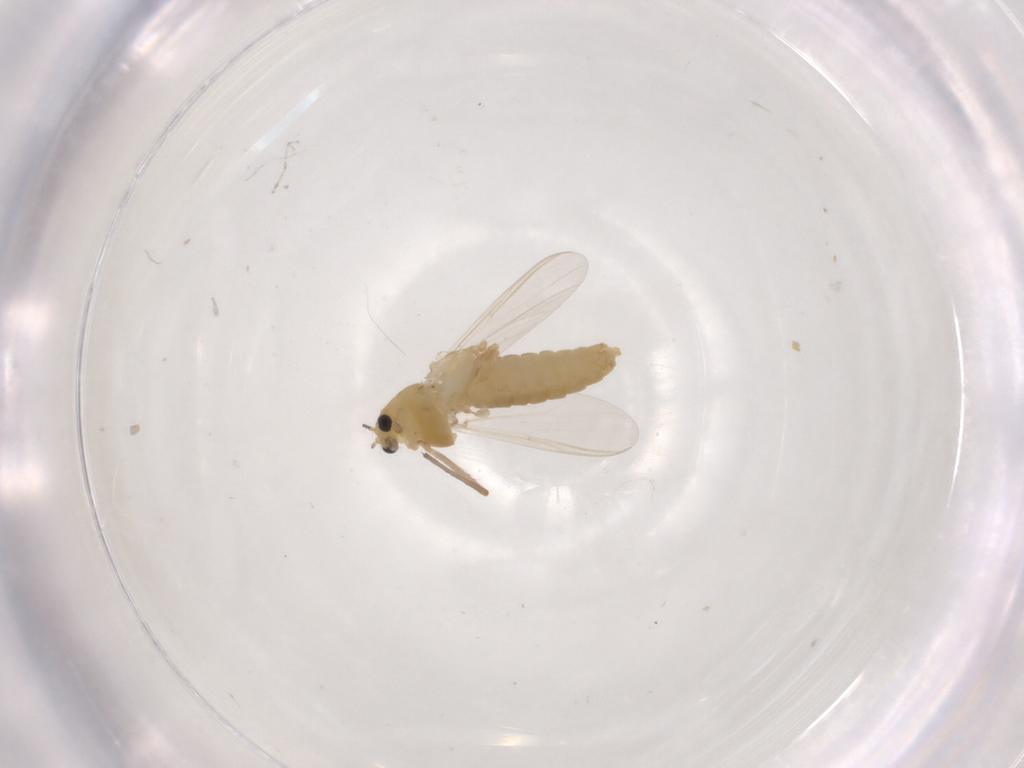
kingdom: Animalia
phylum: Arthropoda
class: Insecta
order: Diptera
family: Chironomidae
